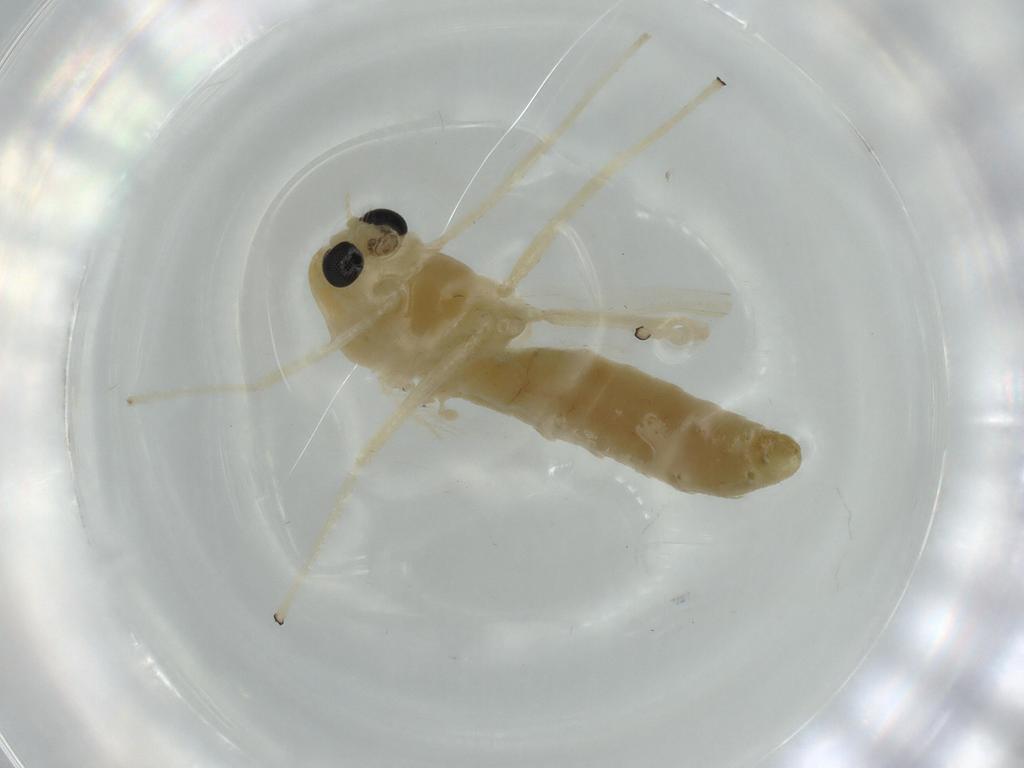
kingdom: Animalia
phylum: Arthropoda
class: Insecta
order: Diptera
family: Chironomidae
